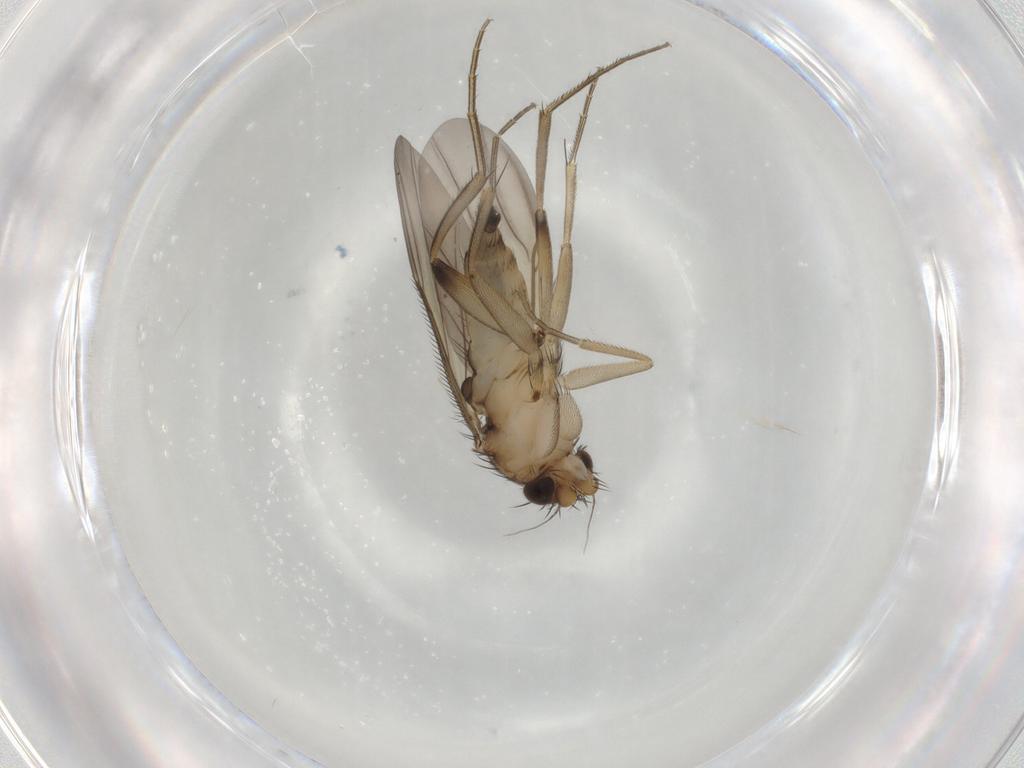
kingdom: Animalia
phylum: Arthropoda
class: Insecta
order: Diptera
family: Phoridae
